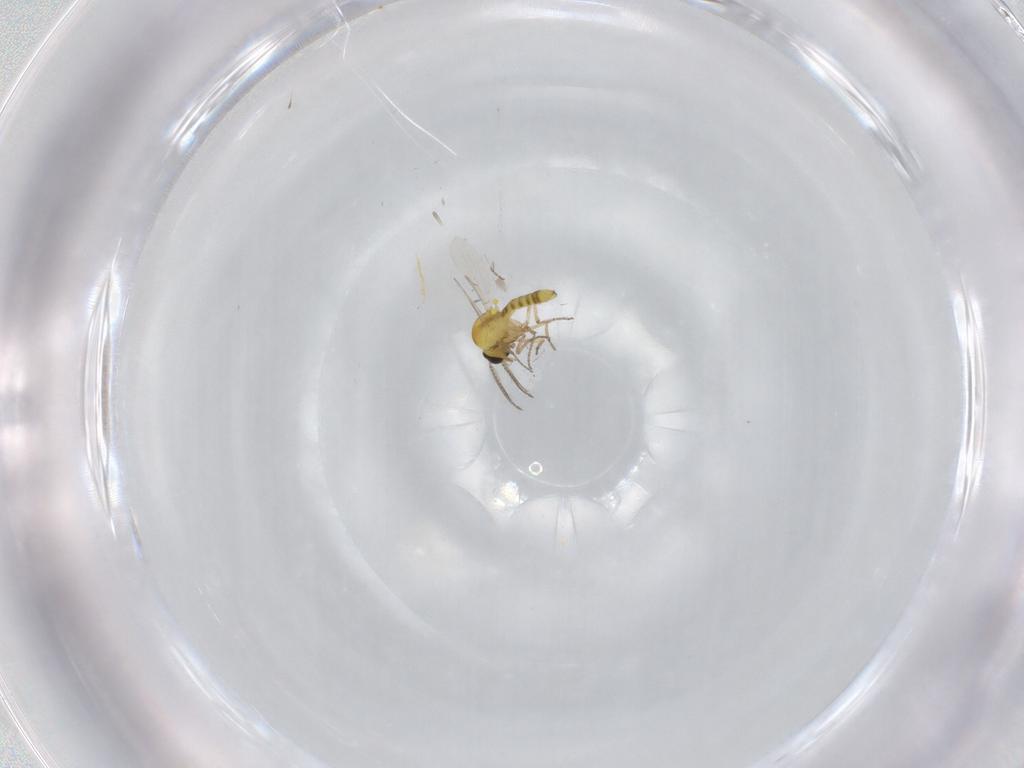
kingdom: Animalia
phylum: Arthropoda
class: Insecta
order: Diptera
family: Ceratopogonidae
